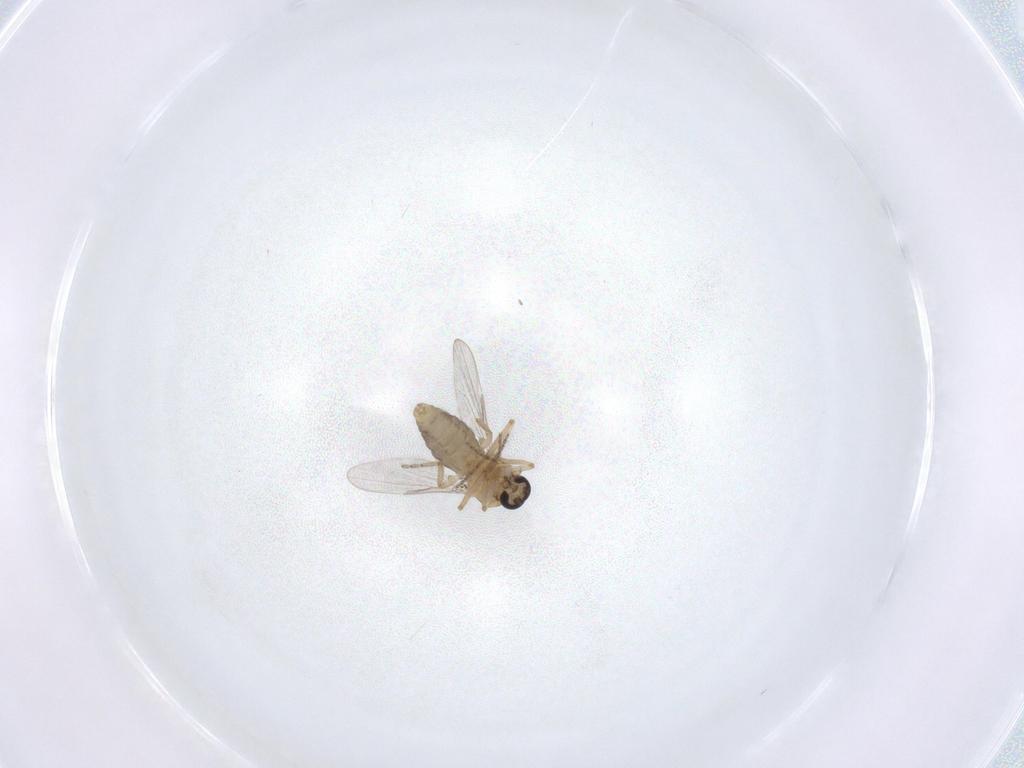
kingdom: Animalia
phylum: Arthropoda
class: Insecta
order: Diptera
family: Ceratopogonidae
